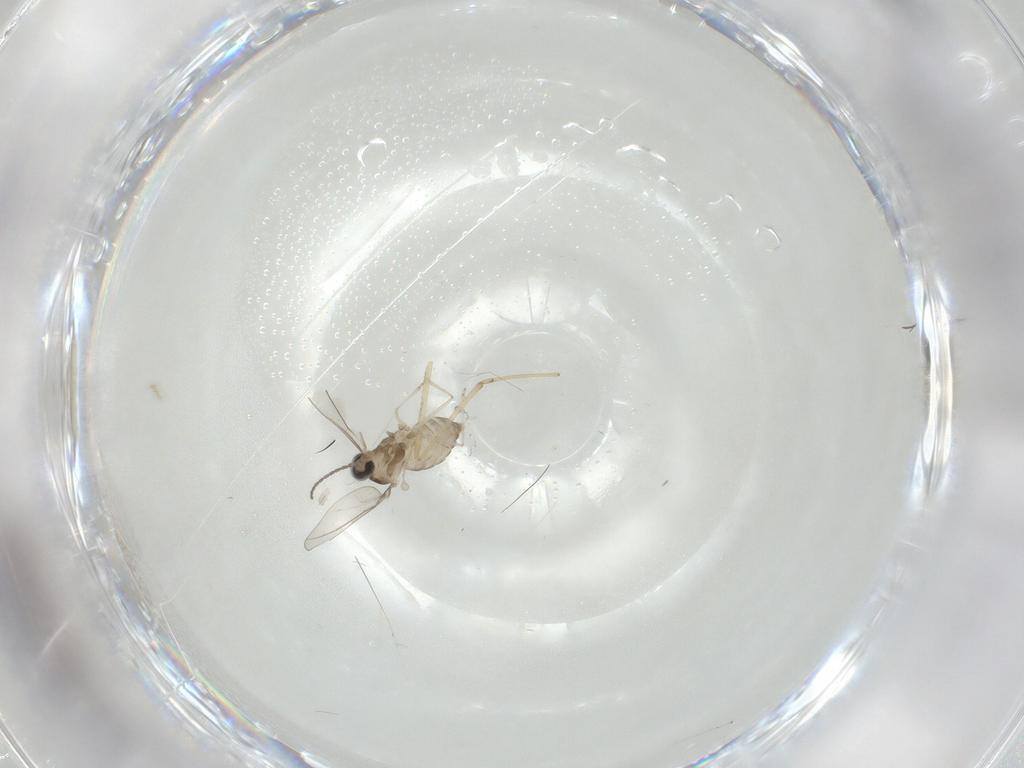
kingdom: Animalia
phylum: Arthropoda
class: Insecta
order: Diptera
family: Cecidomyiidae
